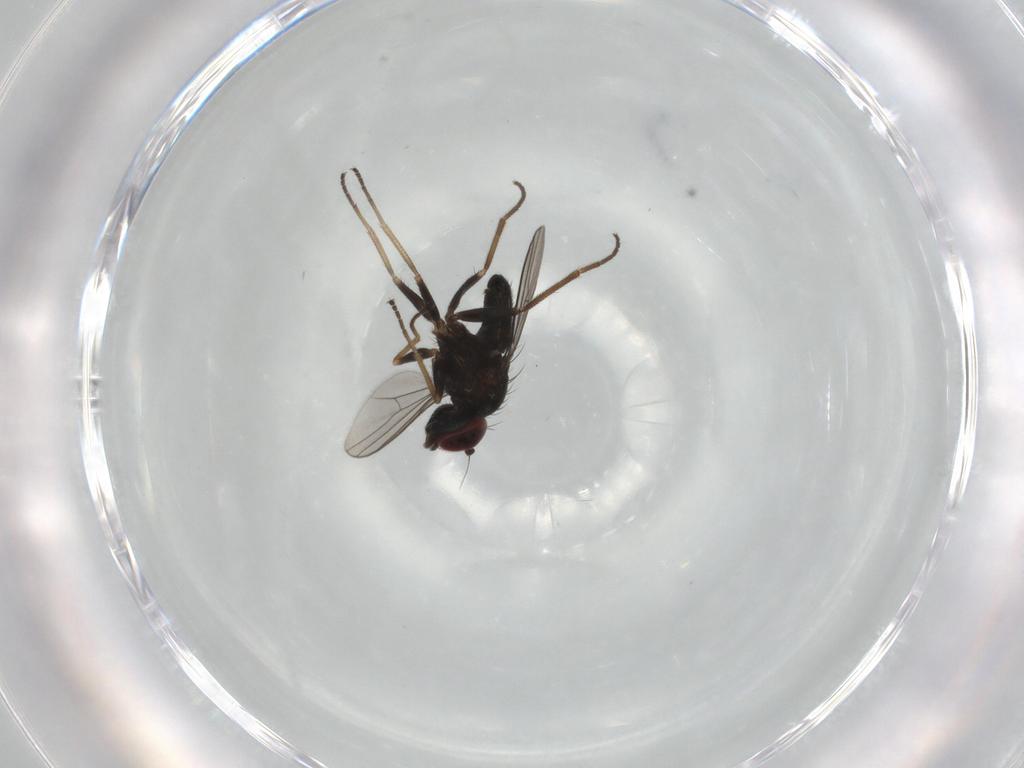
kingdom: Animalia
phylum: Arthropoda
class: Insecta
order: Diptera
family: Dolichopodidae
